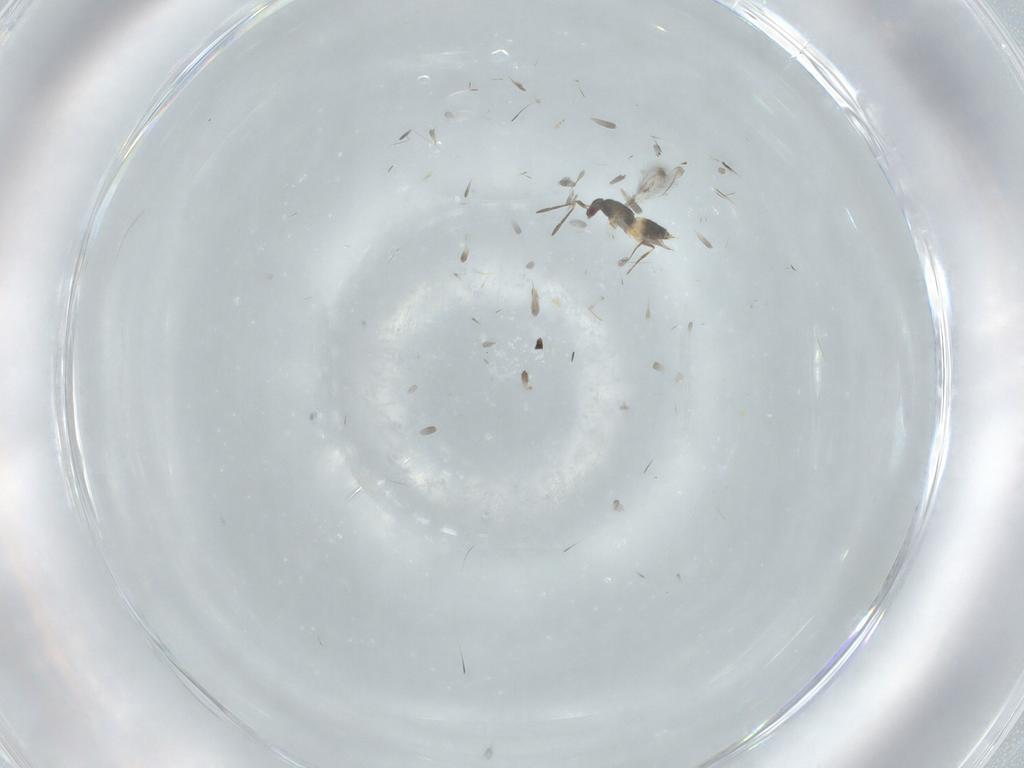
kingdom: Animalia
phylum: Arthropoda
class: Insecta
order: Hymenoptera
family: Mymaridae
